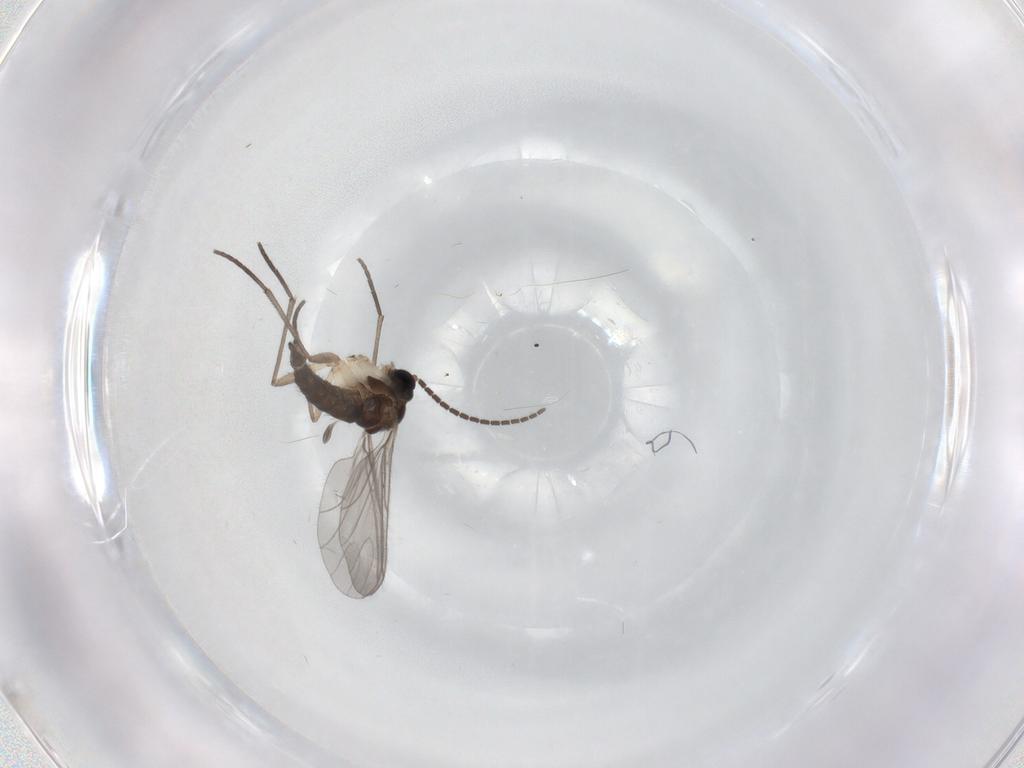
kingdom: Animalia
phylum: Arthropoda
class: Insecta
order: Diptera
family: Sciaridae
